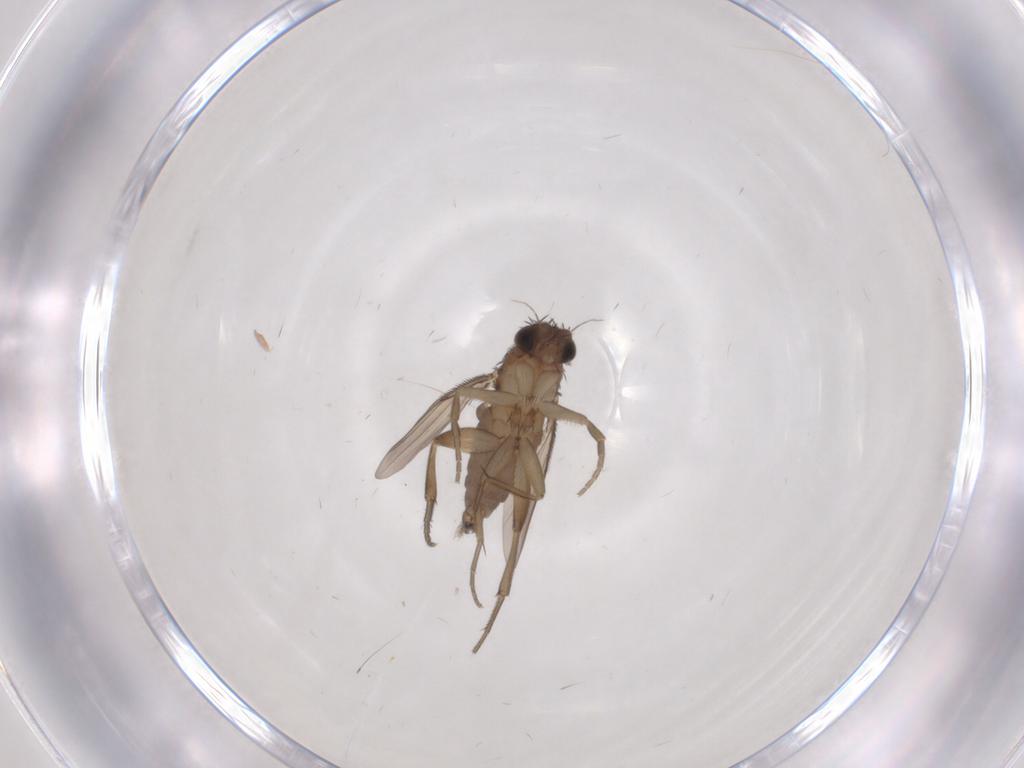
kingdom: Animalia
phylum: Arthropoda
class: Insecta
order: Diptera
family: Phoridae
